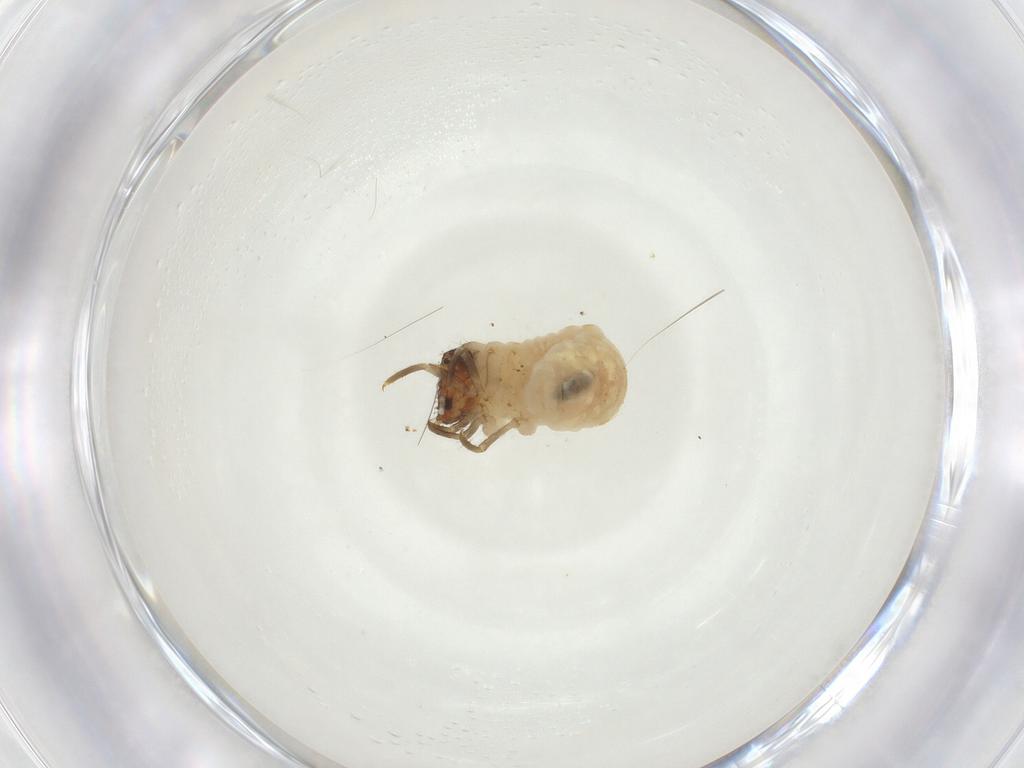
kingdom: Animalia
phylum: Arthropoda
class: Insecta
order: Coleoptera
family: Chrysomelidae
